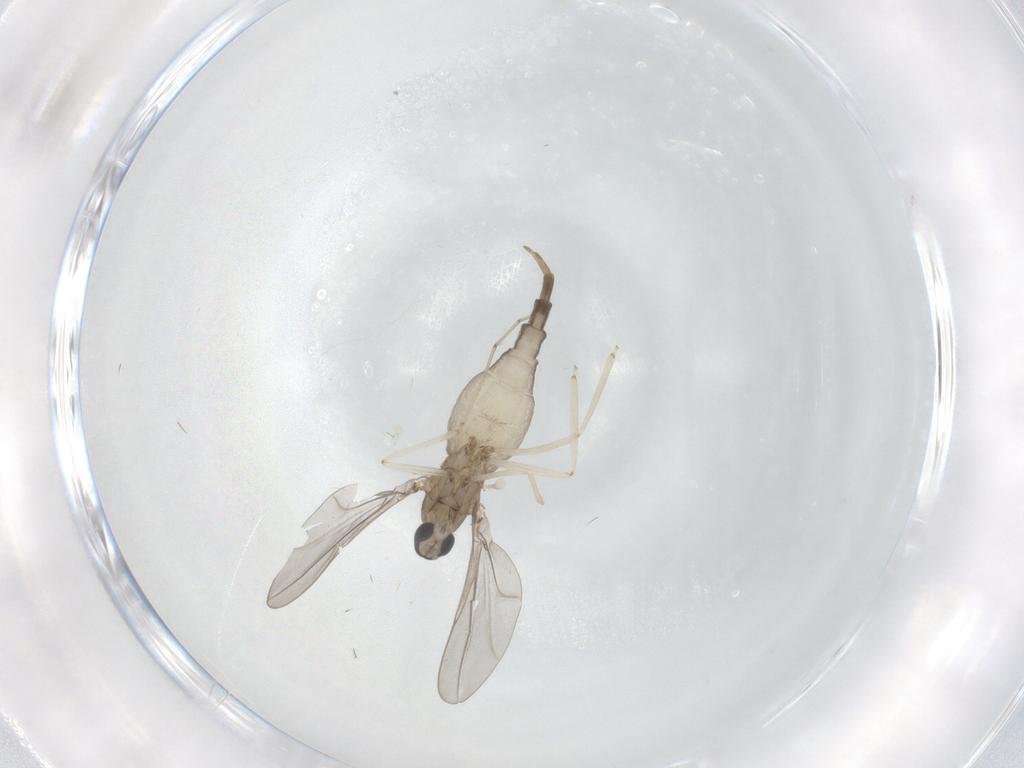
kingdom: Animalia
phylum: Arthropoda
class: Insecta
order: Diptera
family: Cecidomyiidae
